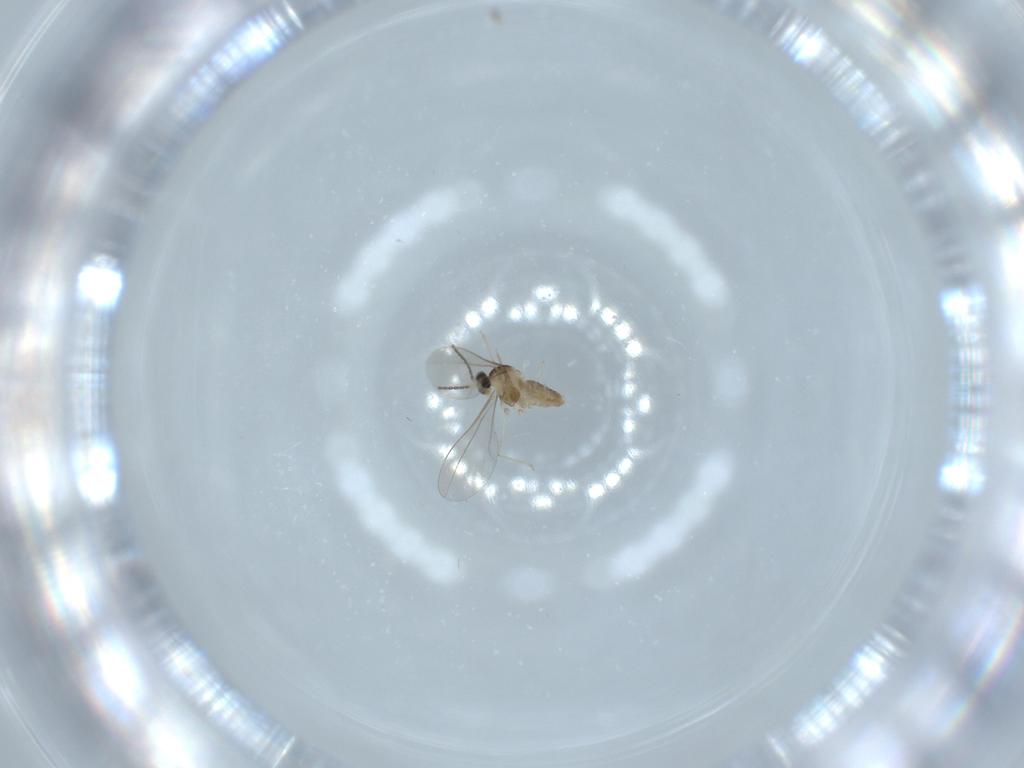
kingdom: Animalia
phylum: Arthropoda
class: Insecta
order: Diptera
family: Cecidomyiidae
